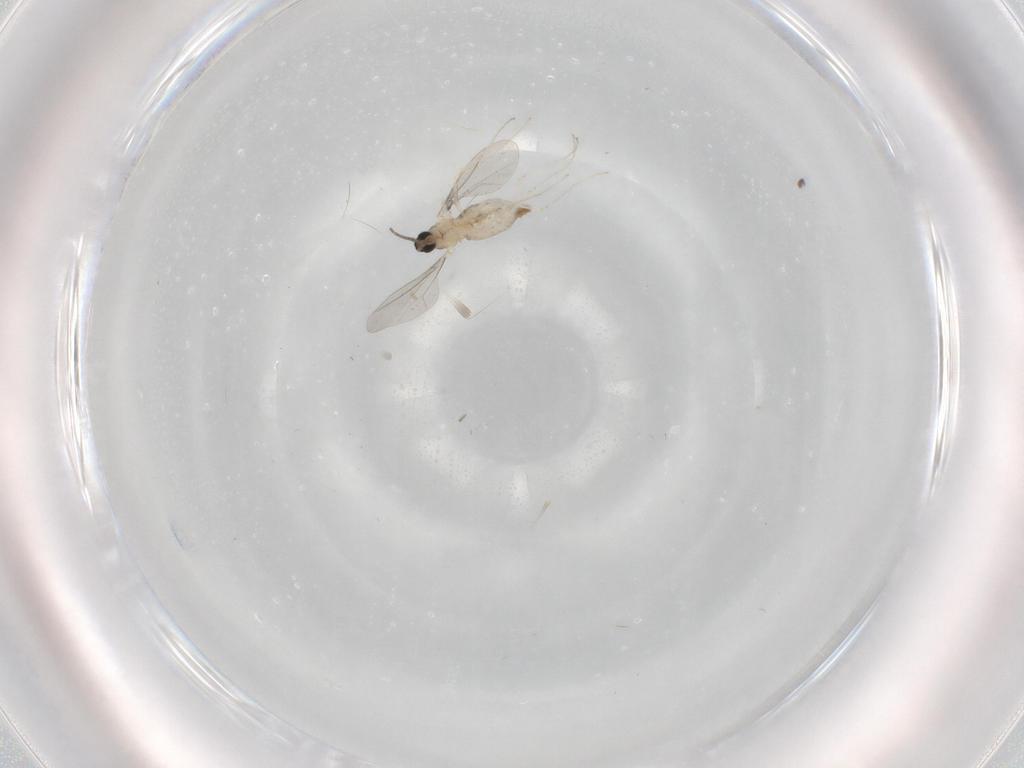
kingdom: Animalia
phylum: Arthropoda
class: Insecta
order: Diptera
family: Cecidomyiidae
